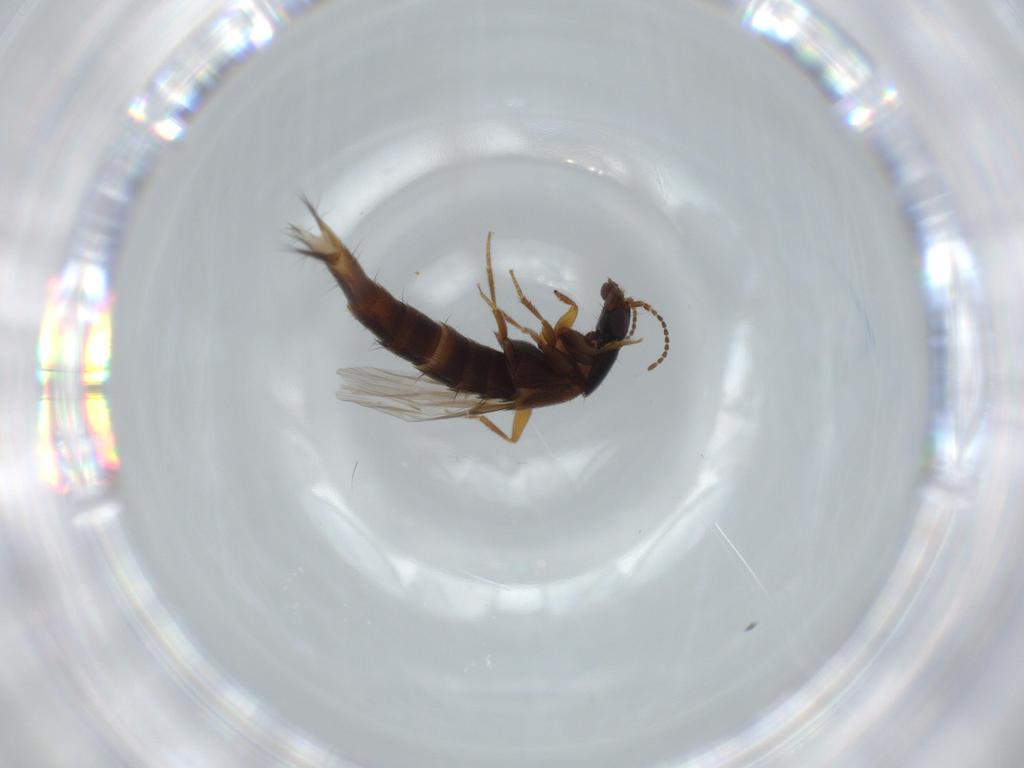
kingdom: Animalia
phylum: Arthropoda
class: Insecta
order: Coleoptera
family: Staphylinidae
